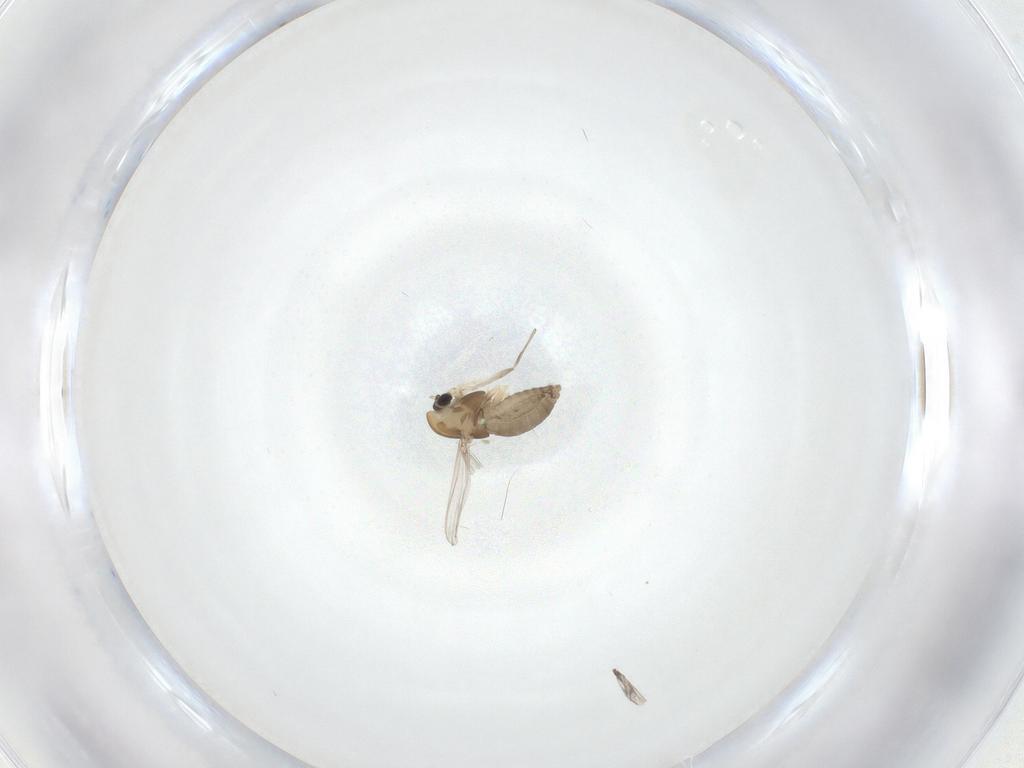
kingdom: Animalia
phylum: Arthropoda
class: Insecta
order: Diptera
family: Chironomidae
